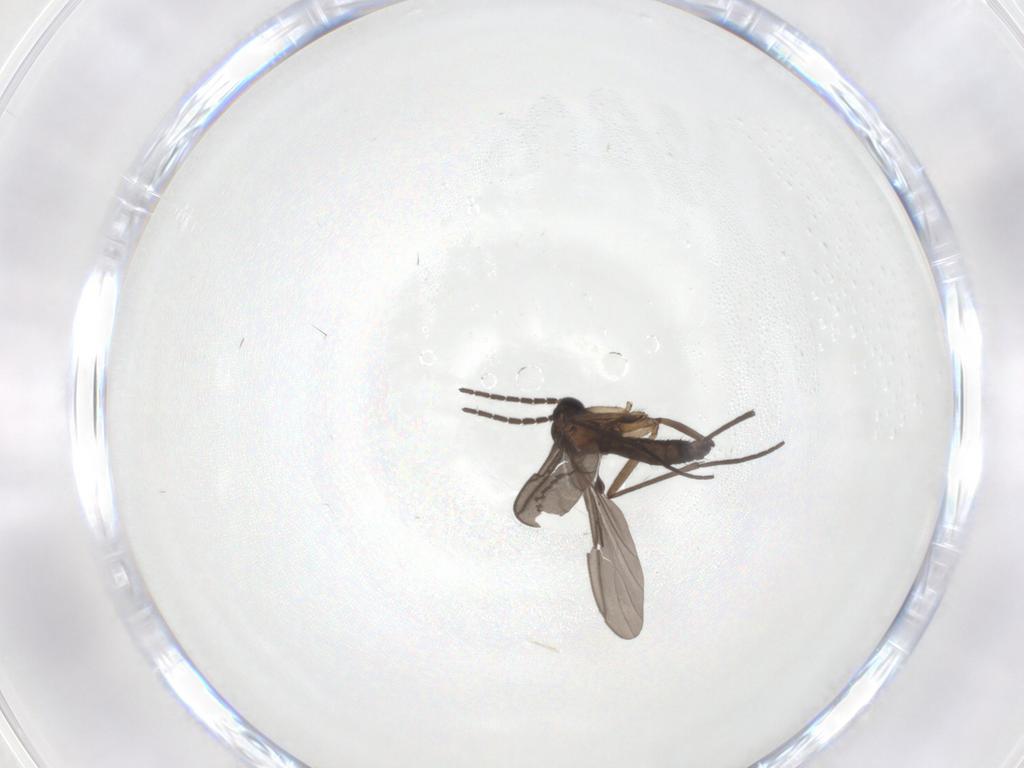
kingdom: Animalia
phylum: Arthropoda
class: Insecta
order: Diptera
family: Sciaridae
